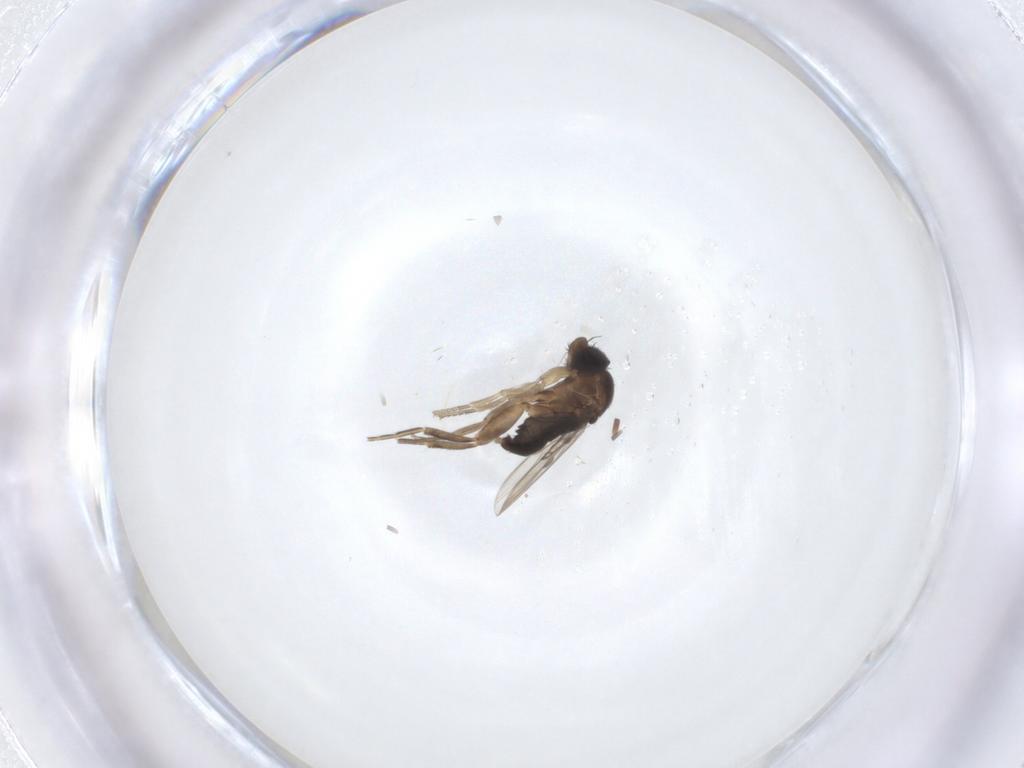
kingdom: Animalia
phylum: Arthropoda
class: Insecta
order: Diptera
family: Phoridae
